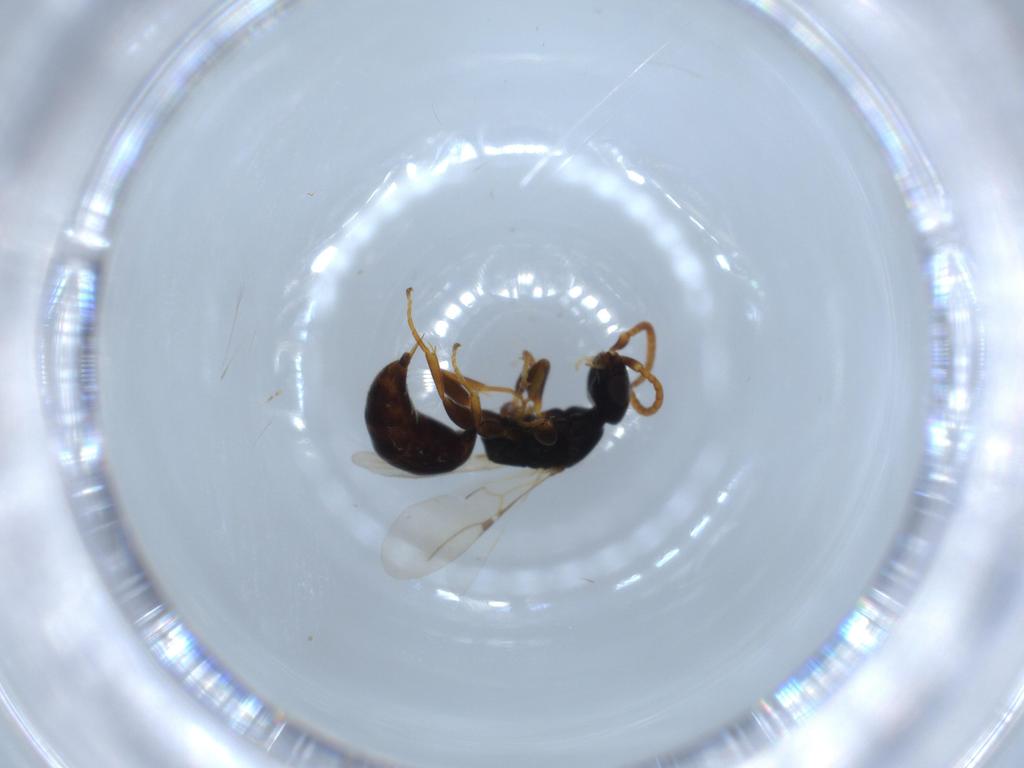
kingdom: Animalia
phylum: Arthropoda
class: Insecta
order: Hymenoptera
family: Bethylidae
